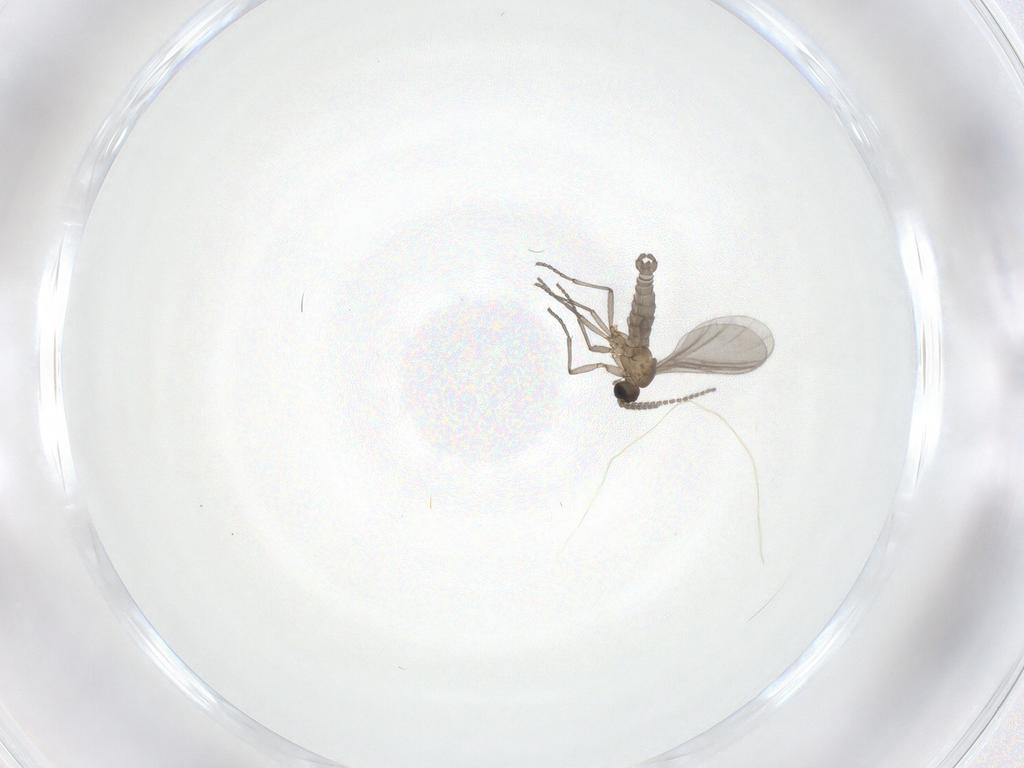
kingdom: Animalia
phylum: Arthropoda
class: Insecta
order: Diptera
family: Sciaridae
